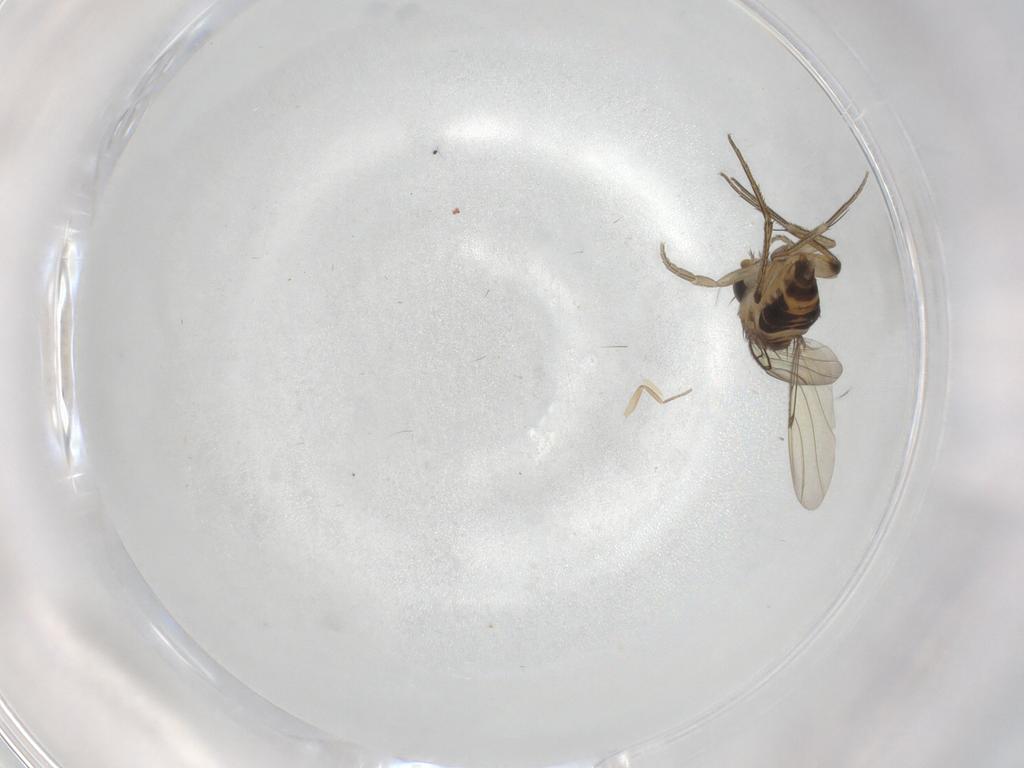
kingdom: Animalia
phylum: Arthropoda
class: Insecta
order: Diptera
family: Phoridae
